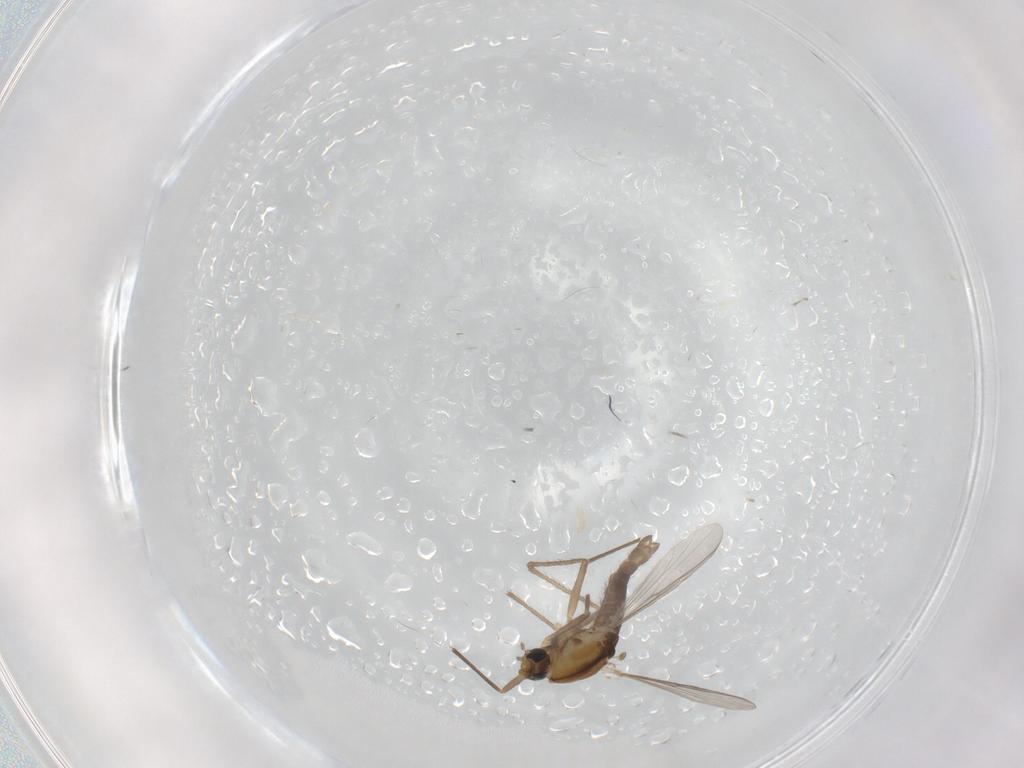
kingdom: Animalia
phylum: Arthropoda
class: Insecta
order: Diptera
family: Chironomidae
